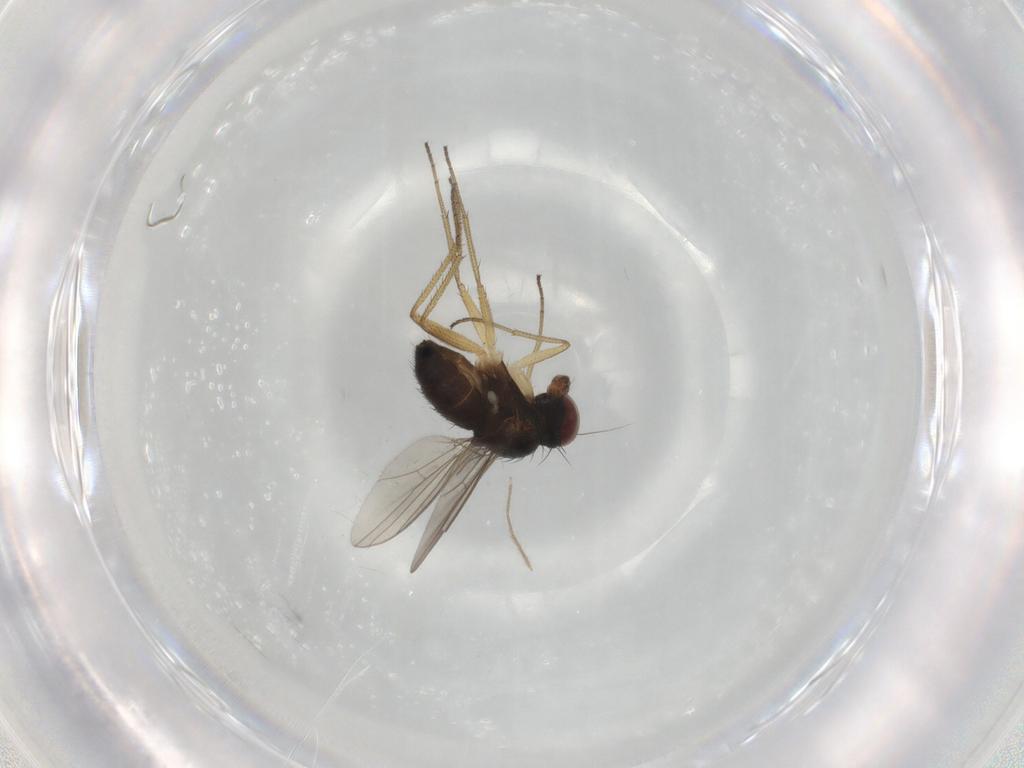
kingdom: Animalia
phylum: Arthropoda
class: Insecta
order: Diptera
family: Dolichopodidae
